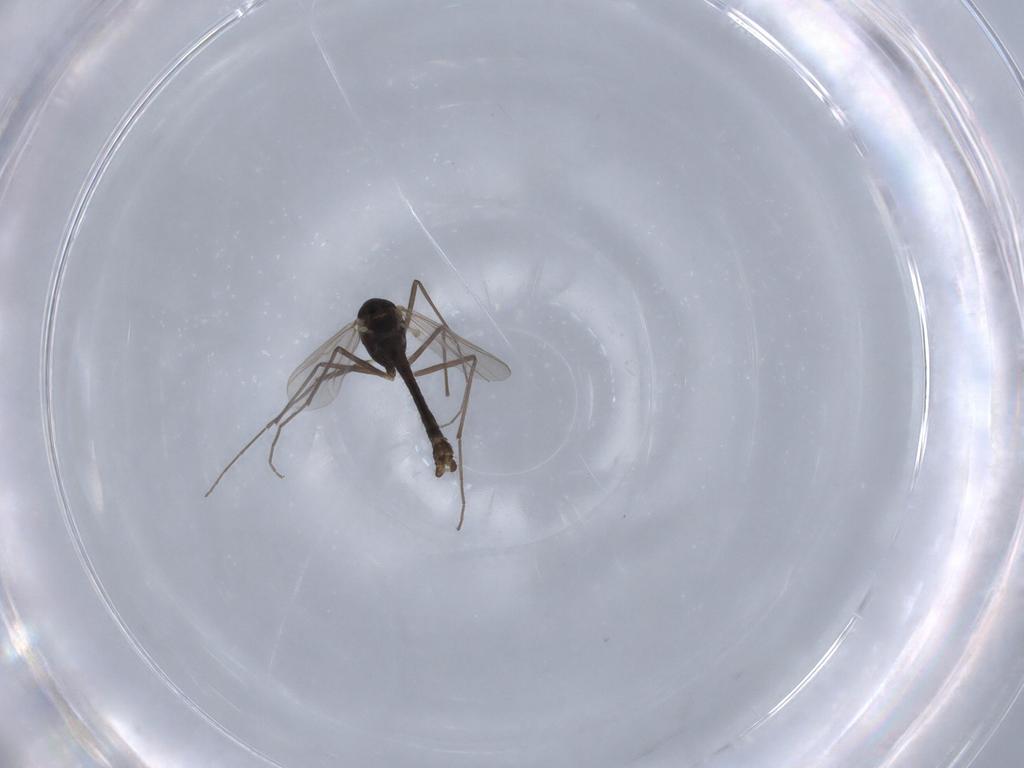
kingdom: Animalia
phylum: Arthropoda
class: Insecta
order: Diptera
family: Chironomidae
